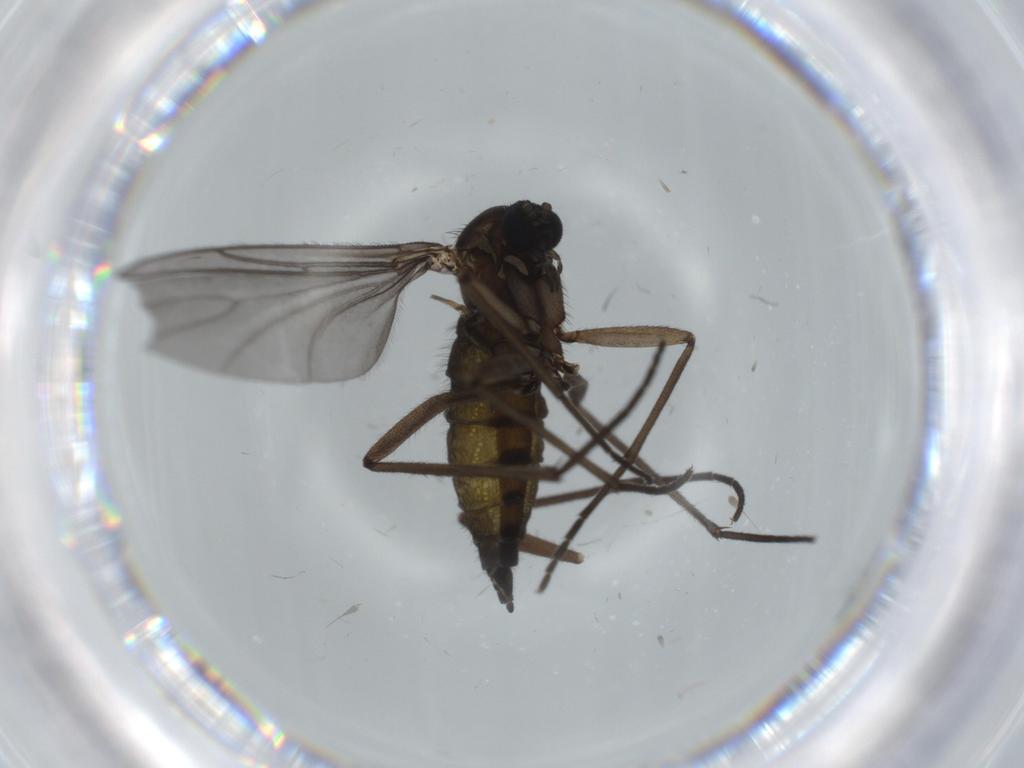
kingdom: Animalia
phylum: Arthropoda
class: Insecta
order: Diptera
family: Sciaridae
